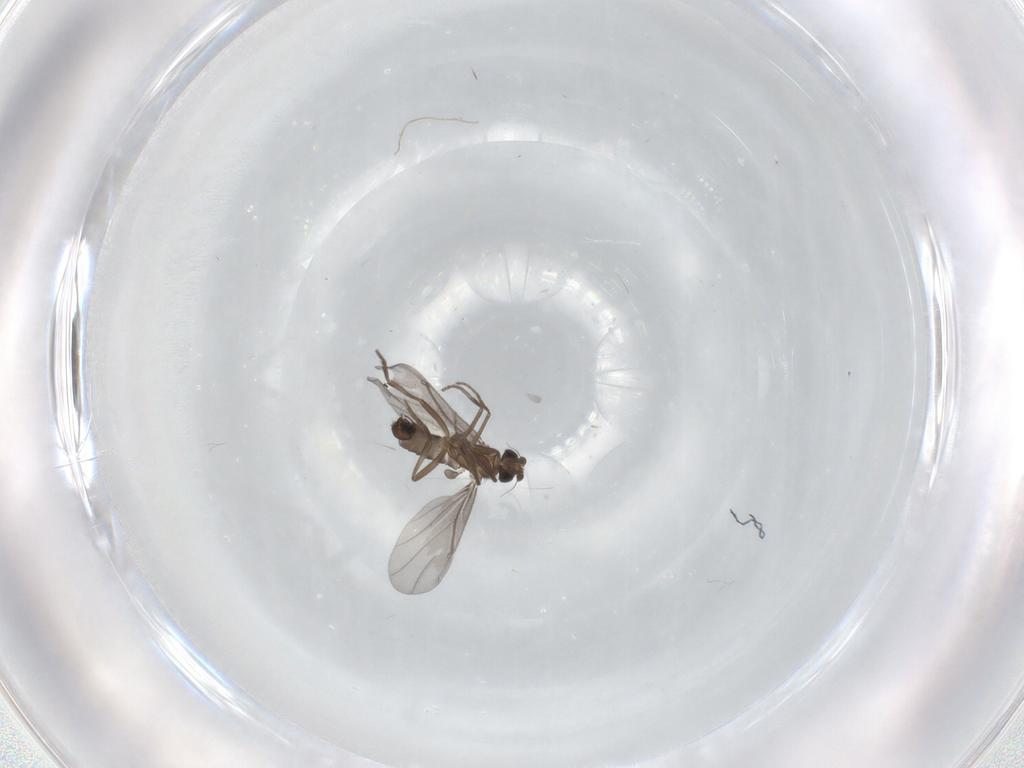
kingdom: Animalia
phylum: Arthropoda
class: Insecta
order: Diptera
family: Phoridae
